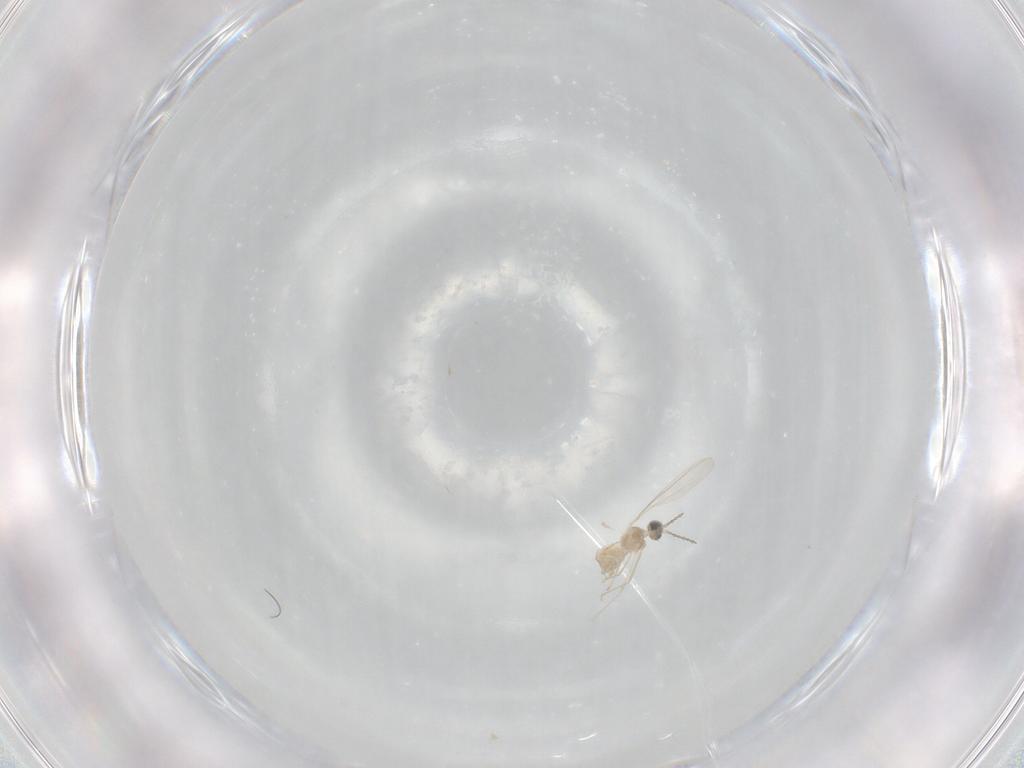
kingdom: Animalia
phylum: Arthropoda
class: Insecta
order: Diptera
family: Cecidomyiidae
